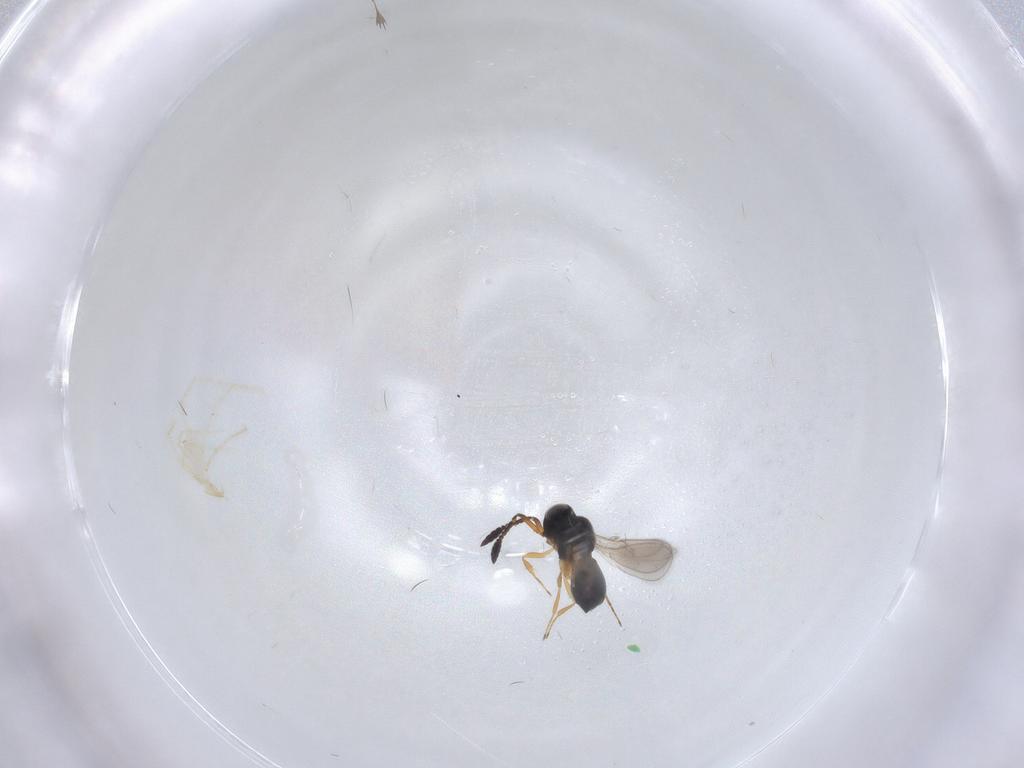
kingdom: Animalia
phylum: Arthropoda
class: Insecta
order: Hymenoptera
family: Scelionidae
